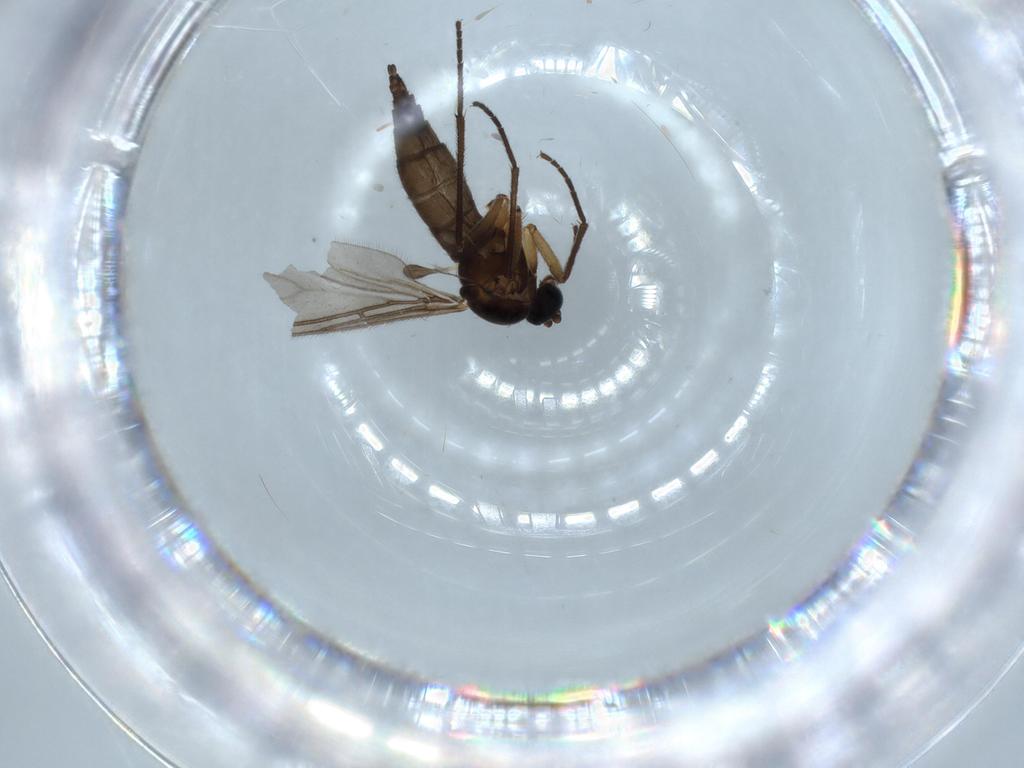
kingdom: Animalia
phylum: Arthropoda
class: Insecta
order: Diptera
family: Sciaridae
